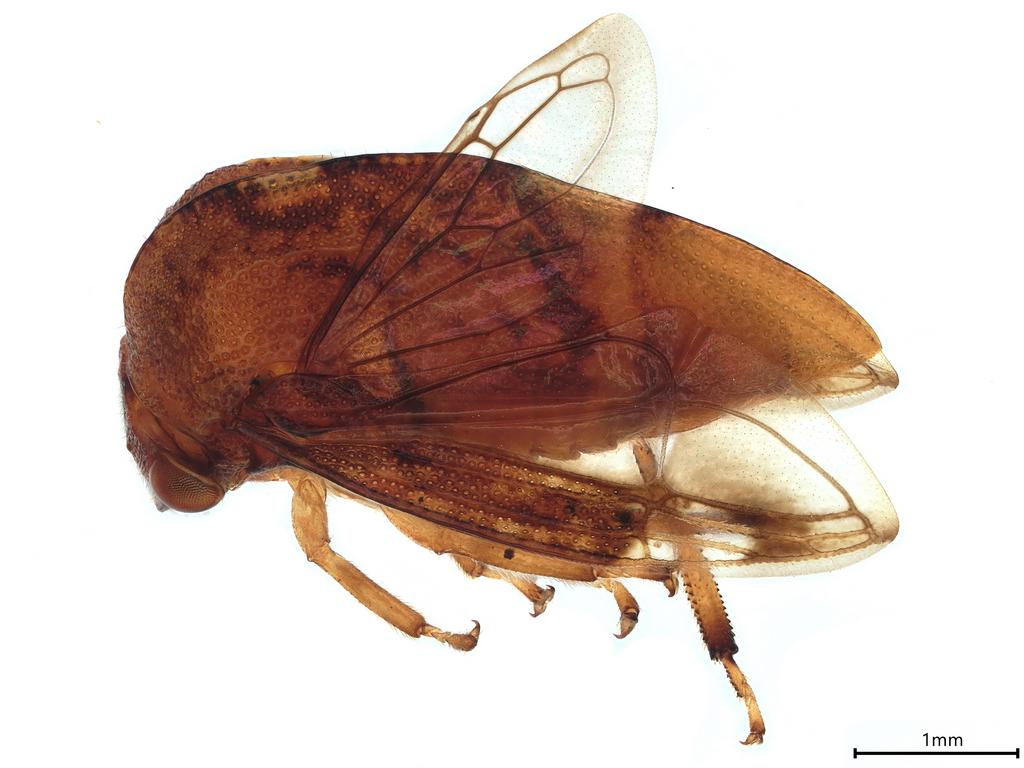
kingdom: Animalia
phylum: Arthropoda
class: Insecta
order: Hemiptera
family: Membracidae
